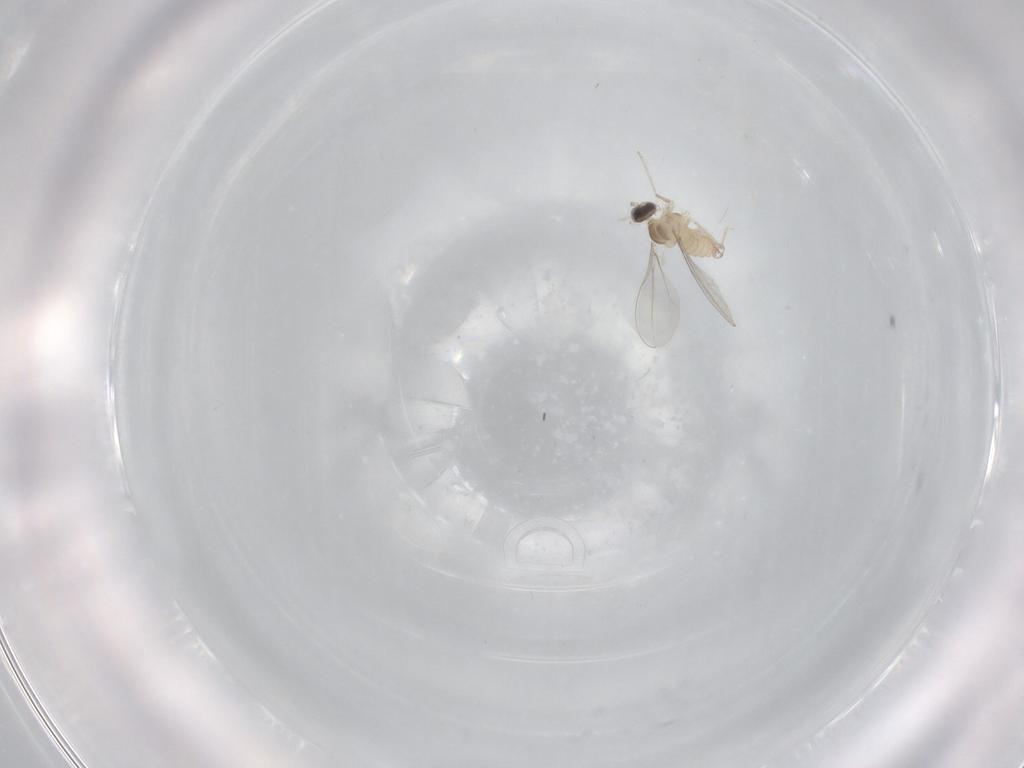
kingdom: Animalia
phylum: Arthropoda
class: Insecta
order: Diptera
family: Cecidomyiidae
